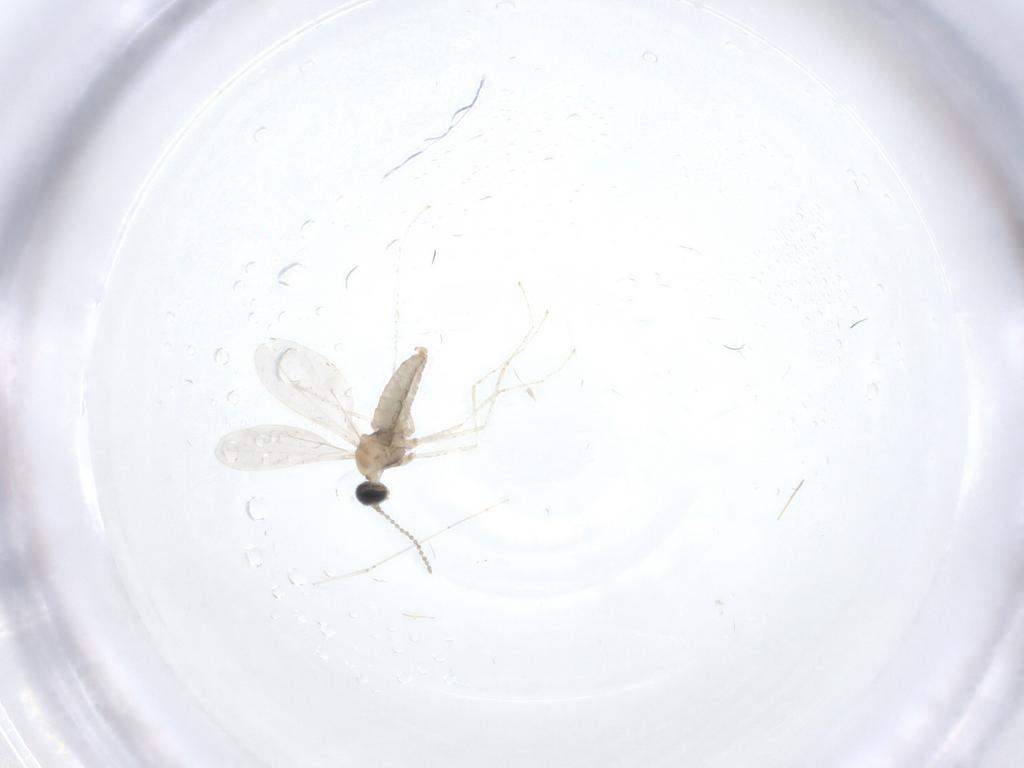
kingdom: Animalia
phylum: Arthropoda
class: Insecta
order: Diptera
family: Cecidomyiidae
